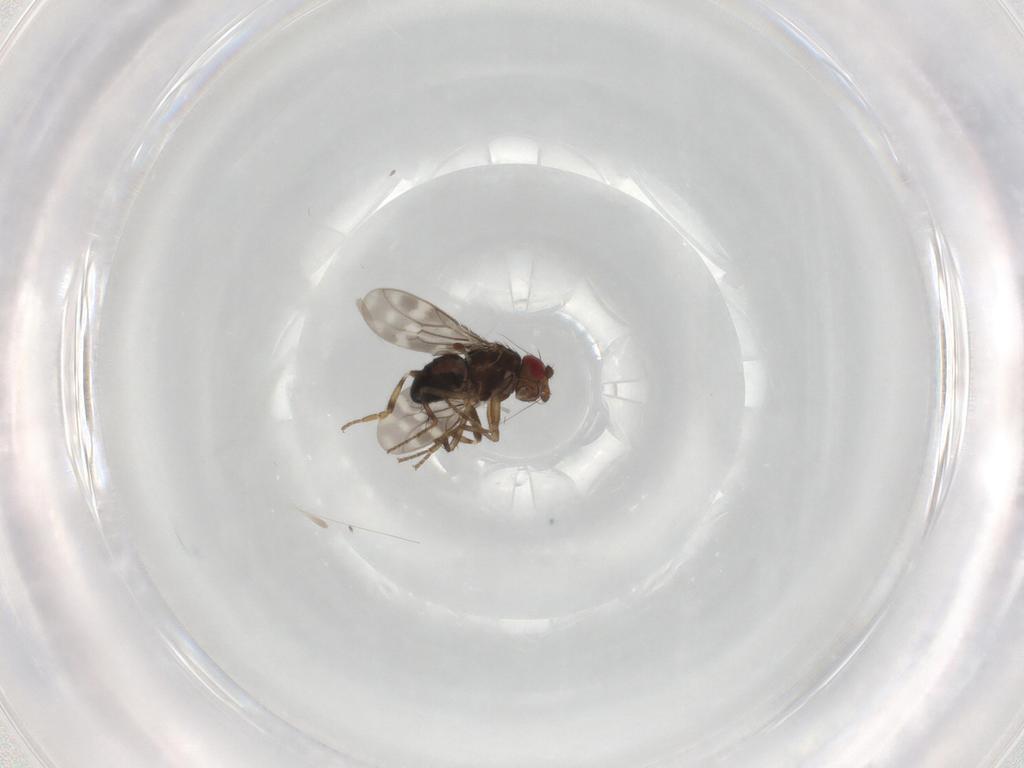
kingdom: Animalia
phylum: Arthropoda
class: Insecta
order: Diptera
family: Sphaeroceridae
